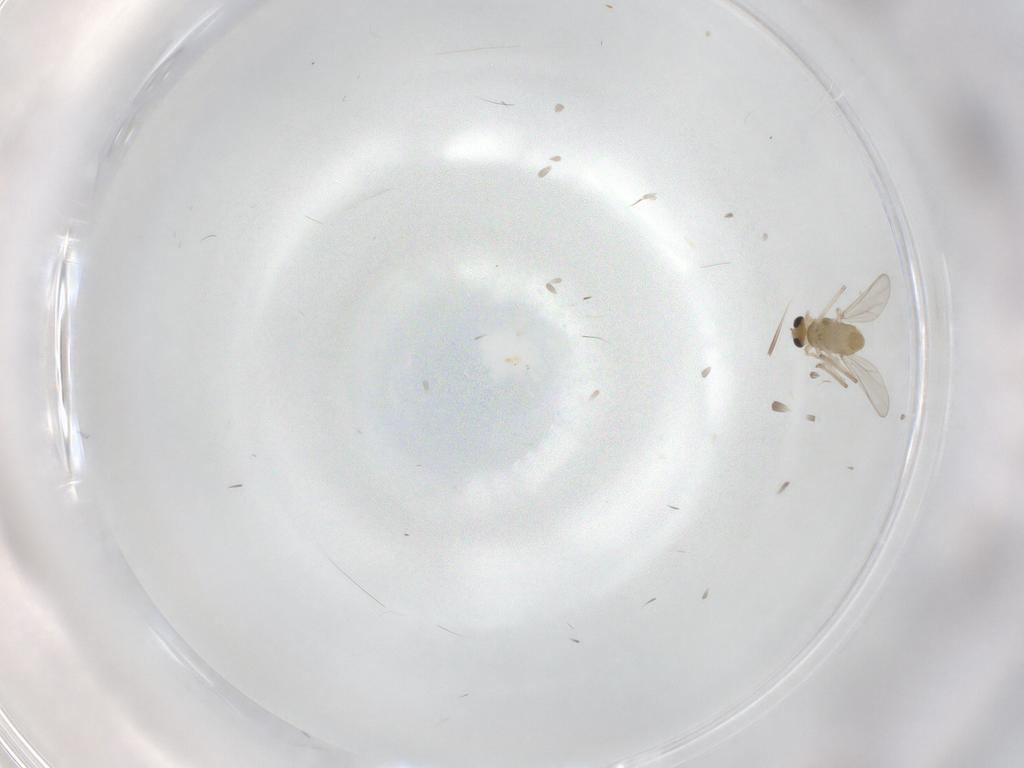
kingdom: Animalia
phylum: Arthropoda
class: Insecta
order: Diptera
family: Chironomidae
